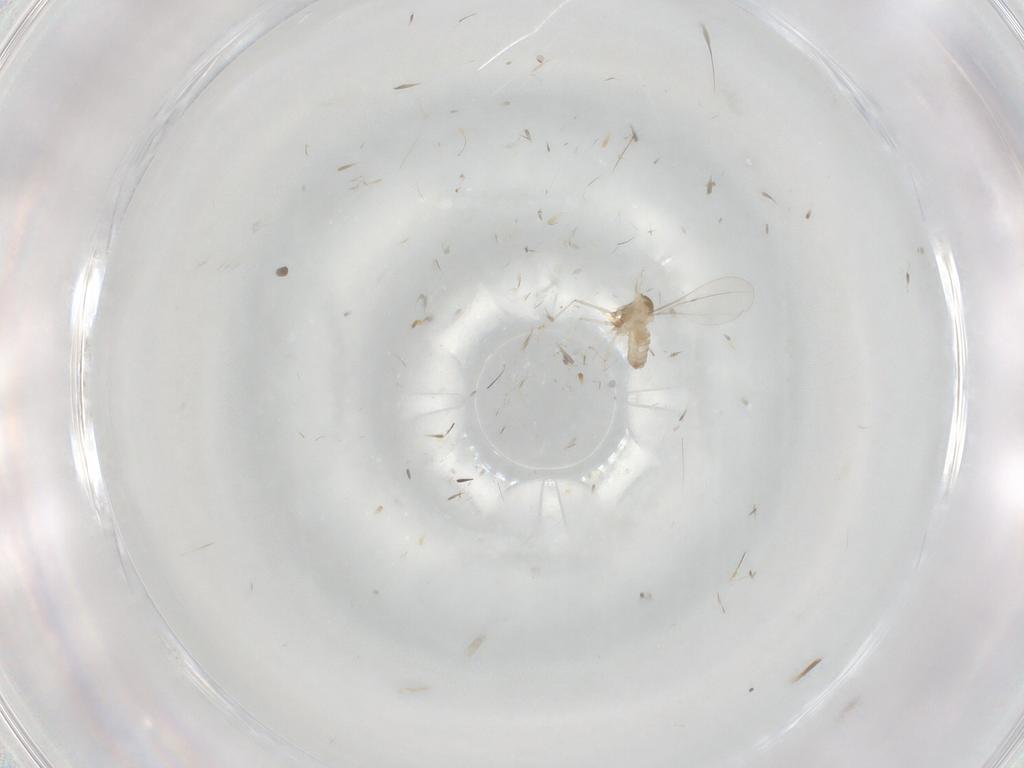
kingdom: Animalia
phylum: Arthropoda
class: Insecta
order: Diptera
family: Cecidomyiidae
